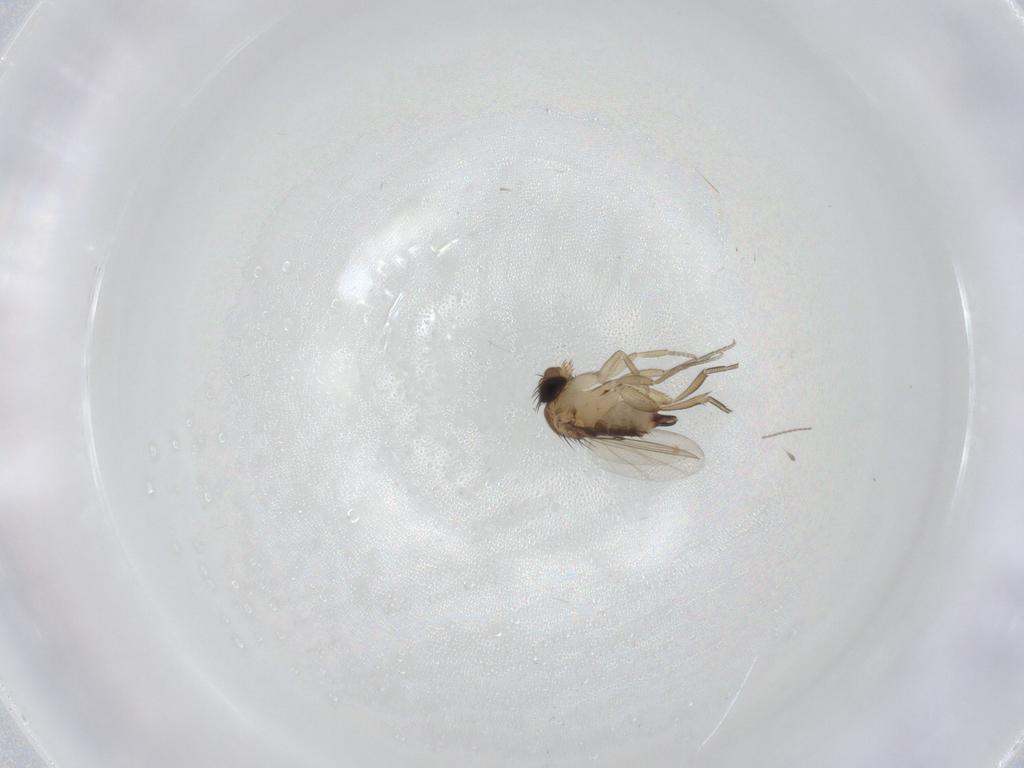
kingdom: Animalia
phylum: Arthropoda
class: Insecta
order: Diptera
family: Cecidomyiidae
